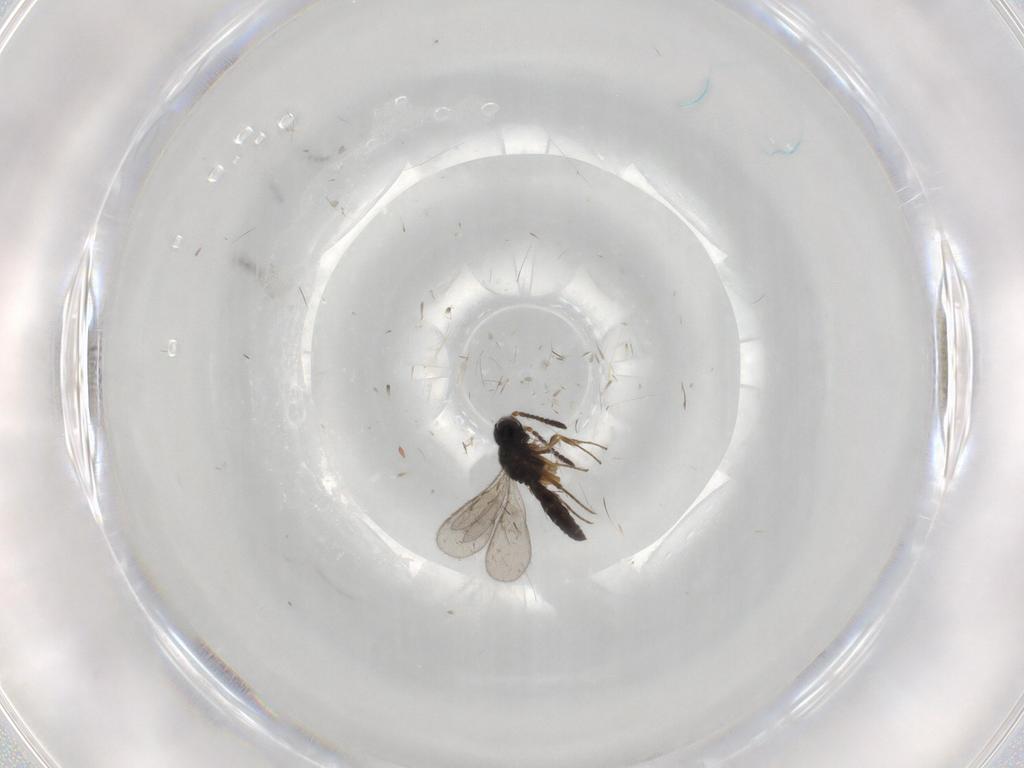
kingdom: Animalia
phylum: Arthropoda
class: Insecta
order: Hymenoptera
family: Scelionidae
